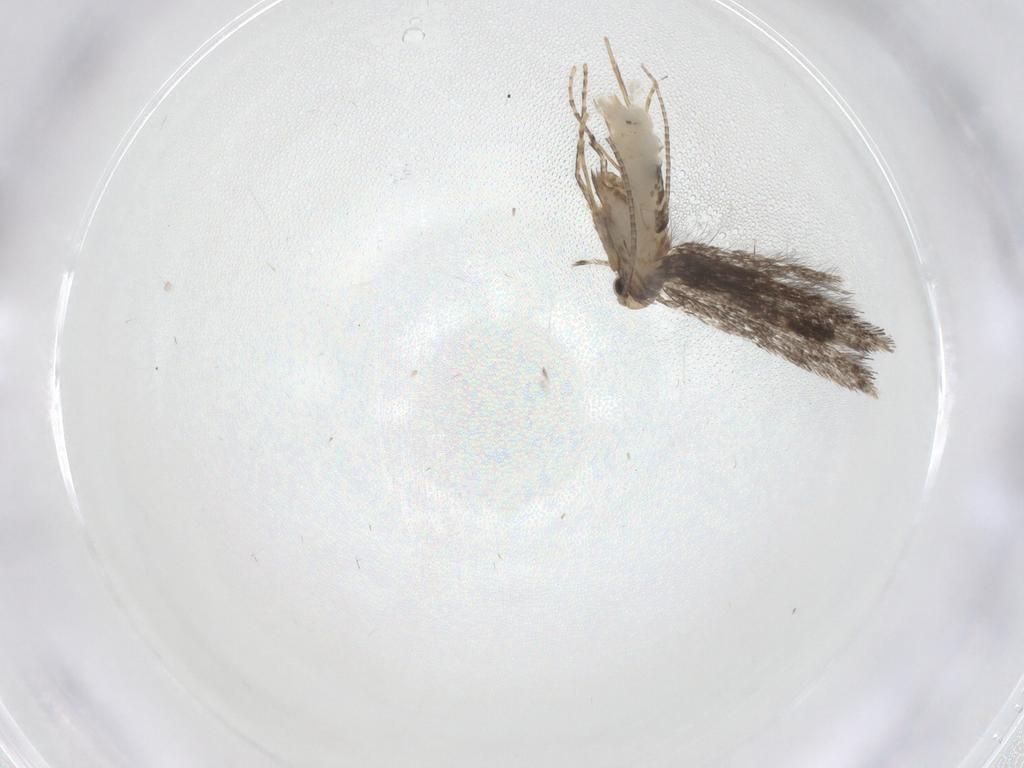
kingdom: Animalia
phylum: Arthropoda
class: Insecta
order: Lepidoptera
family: Gracillariidae
